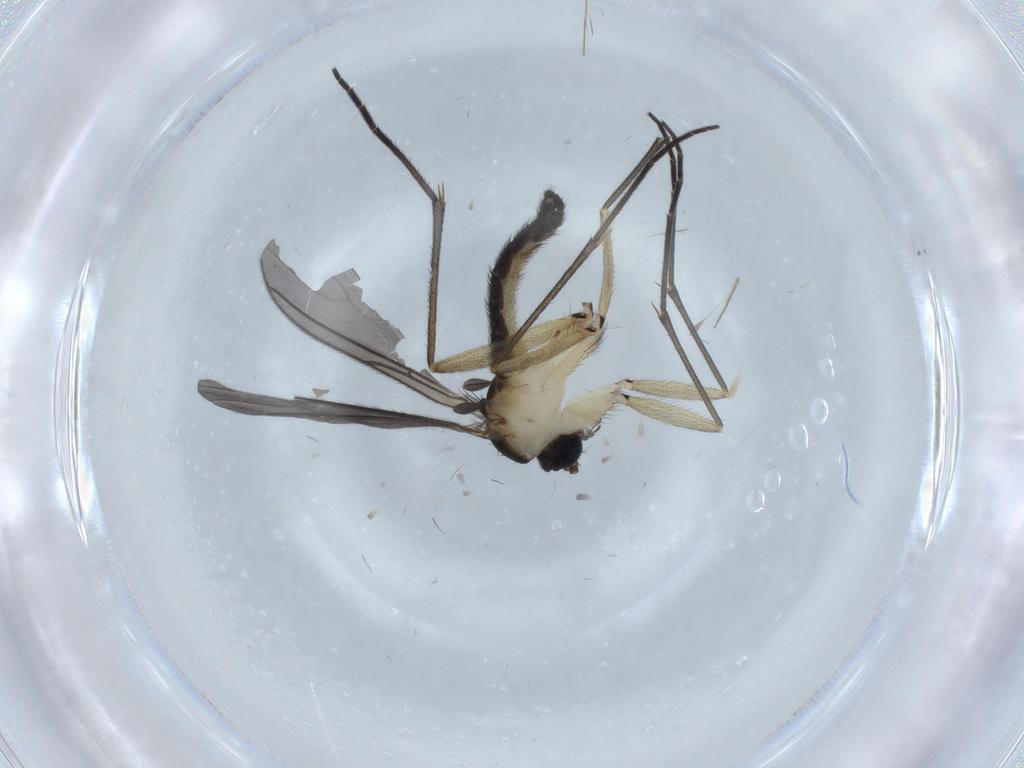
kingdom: Animalia
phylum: Arthropoda
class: Insecta
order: Diptera
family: Sciaridae
